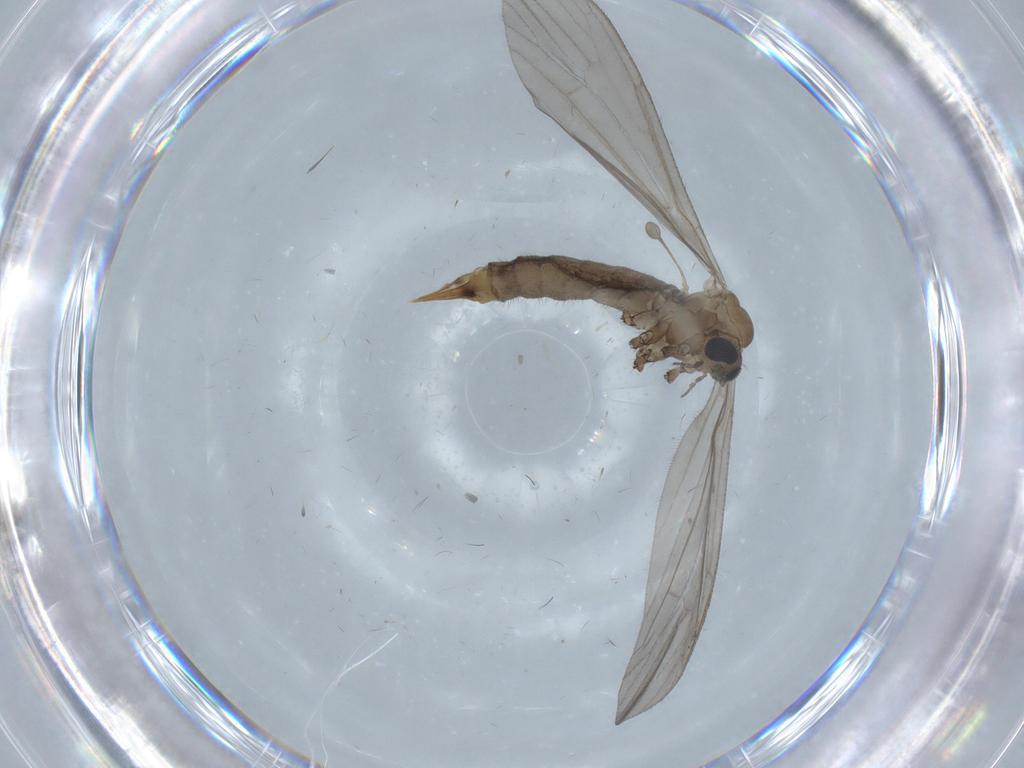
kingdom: Animalia
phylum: Arthropoda
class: Insecta
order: Diptera
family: Limoniidae
